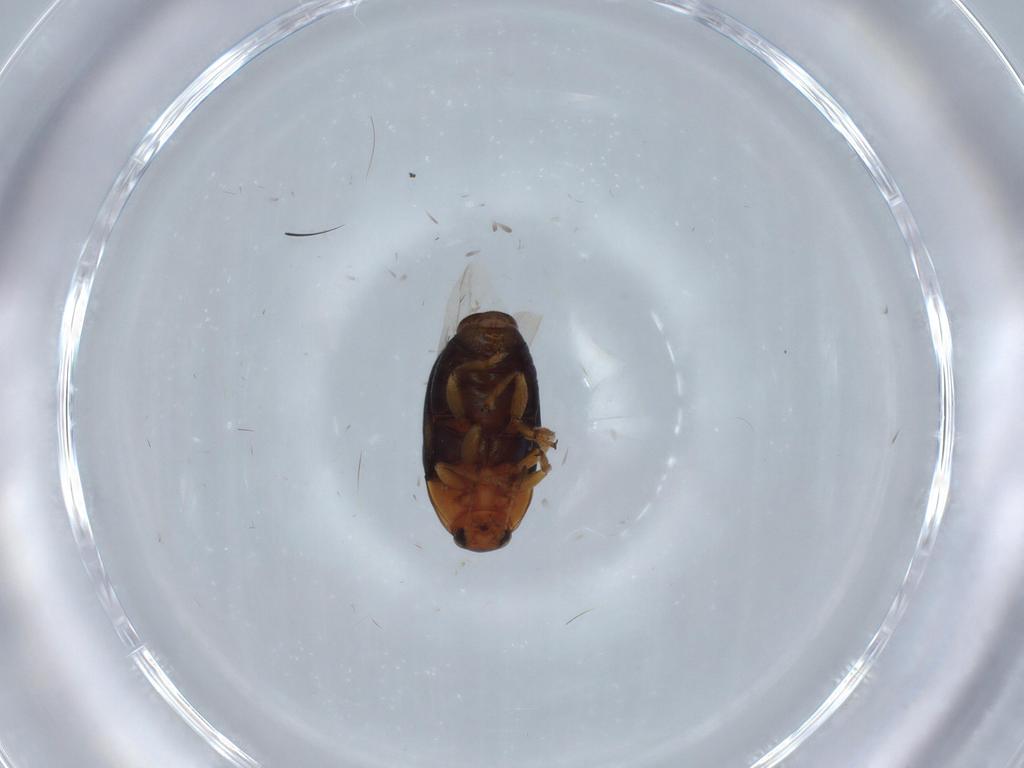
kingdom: Animalia
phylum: Arthropoda
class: Insecta
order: Coleoptera
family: Chrysomelidae
